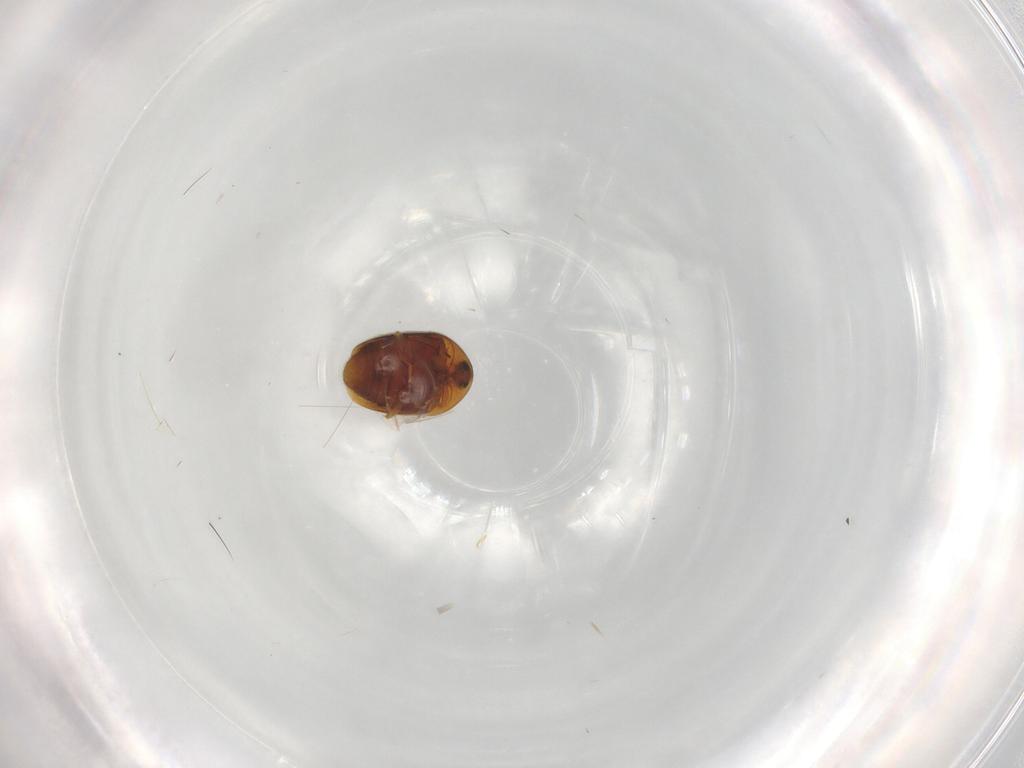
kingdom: Animalia
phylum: Arthropoda
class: Insecta
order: Coleoptera
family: Corylophidae
